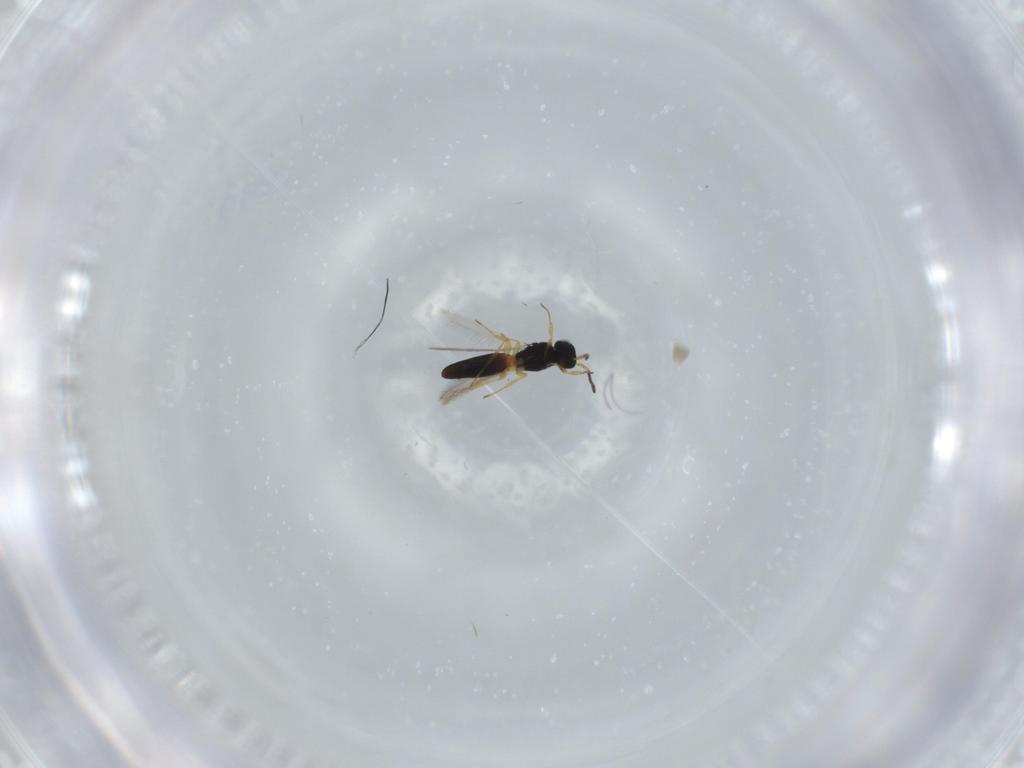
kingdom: Animalia
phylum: Arthropoda
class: Insecta
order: Hymenoptera
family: Scelionidae
